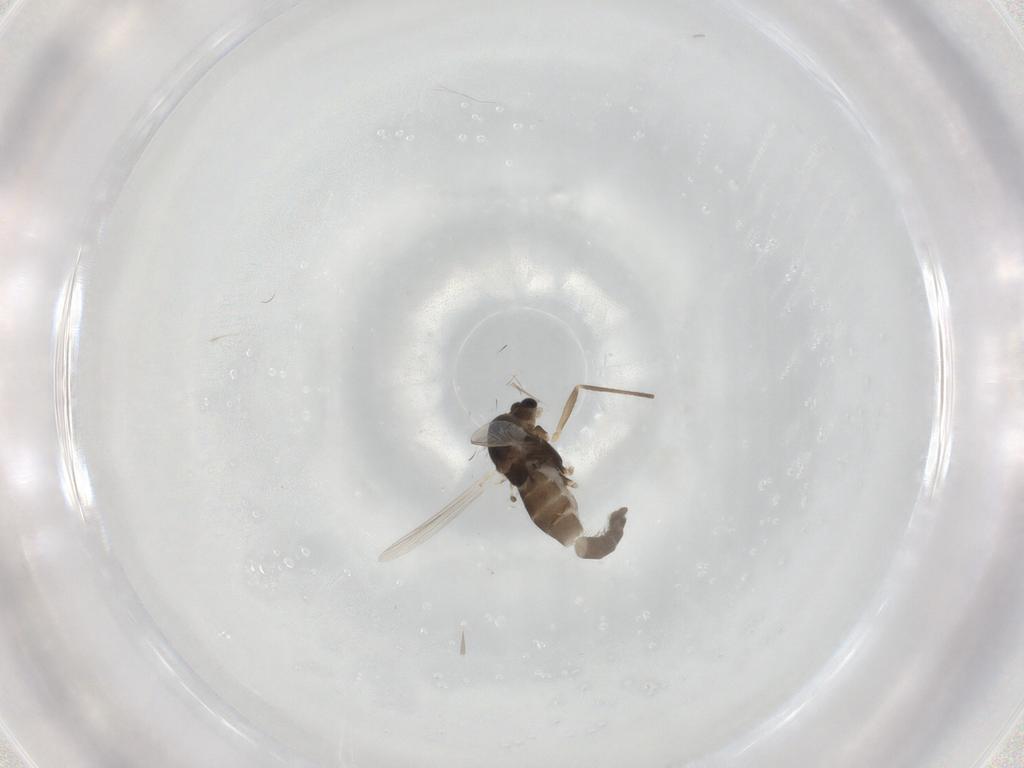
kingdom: Animalia
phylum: Arthropoda
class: Insecta
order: Diptera
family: Chironomidae
